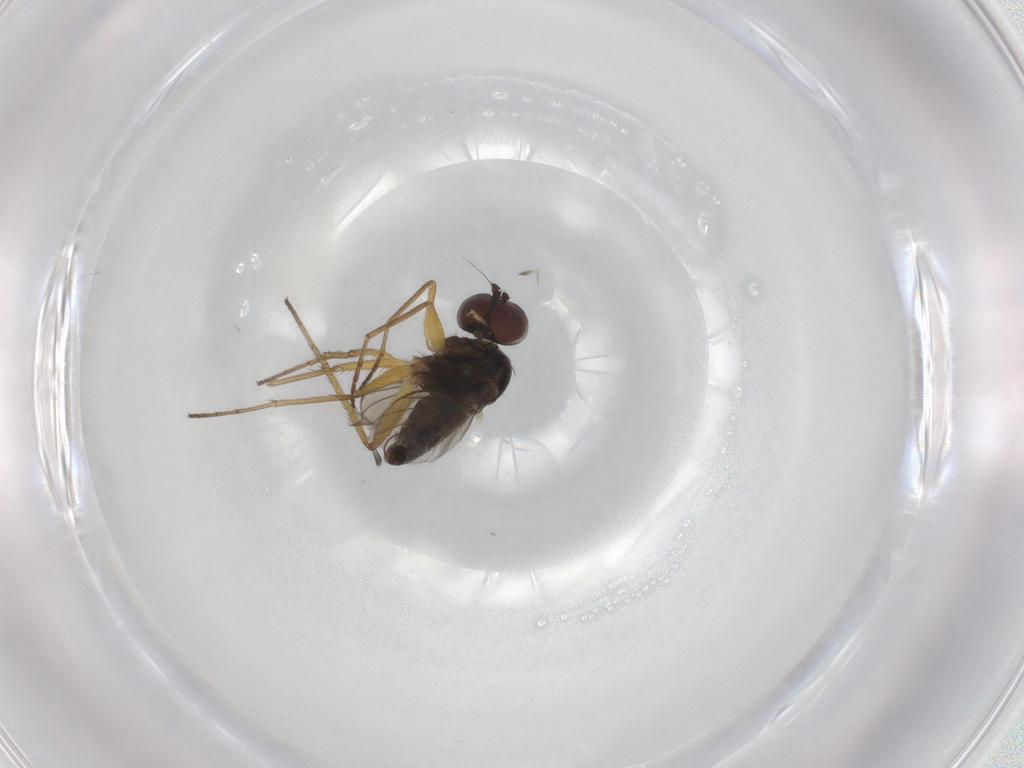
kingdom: Animalia
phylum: Arthropoda
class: Insecta
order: Diptera
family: Dolichopodidae
